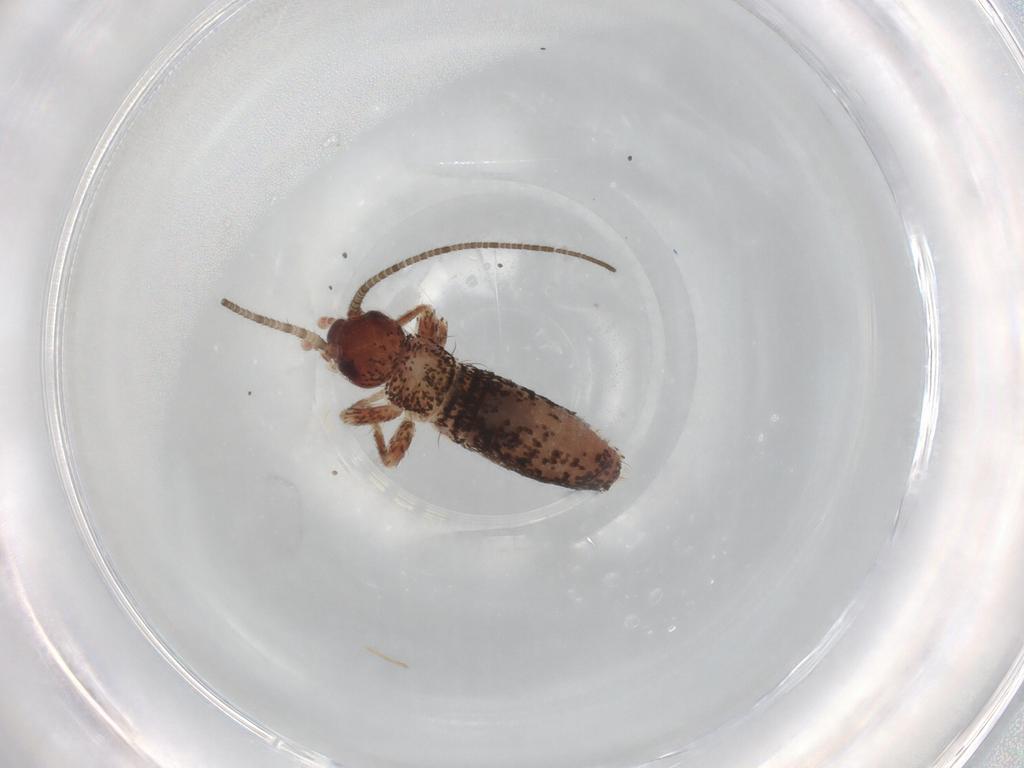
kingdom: Animalia
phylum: Arthropoda
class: Insecta
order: Orthoptera
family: Mogoplistidae
